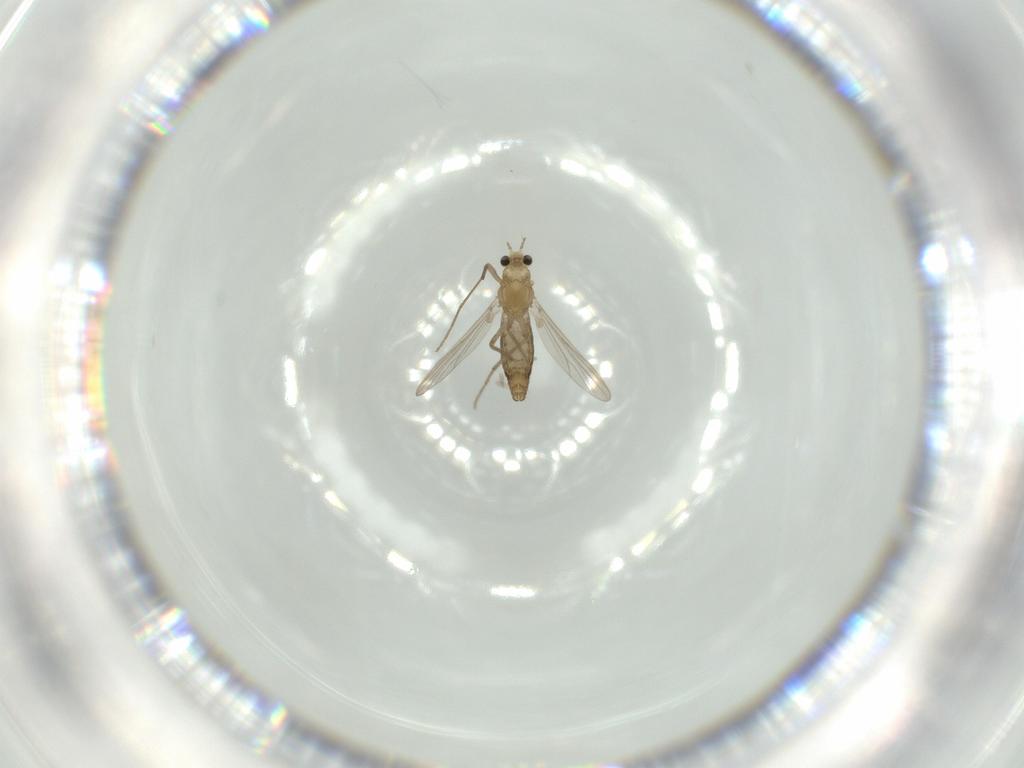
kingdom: Animalia
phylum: Arthropoda
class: Insecta
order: Diptera
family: Chironomidae
